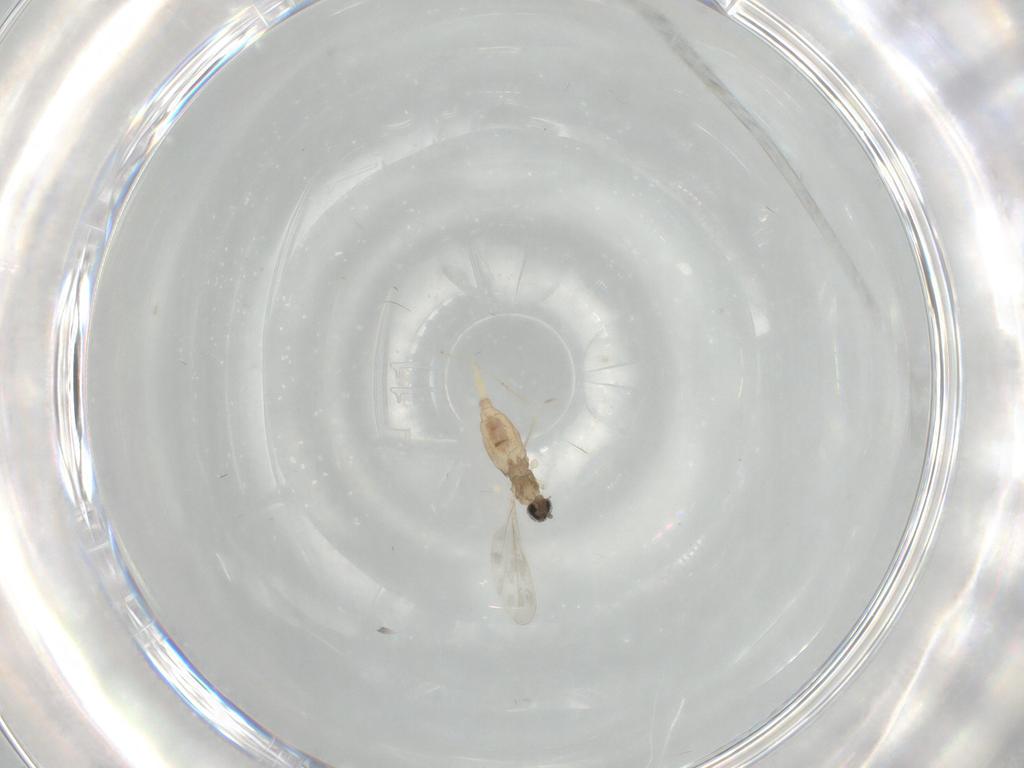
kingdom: Animalia
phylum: Arthropoda
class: Insecta
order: Diptera
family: Cecidomyiidae
